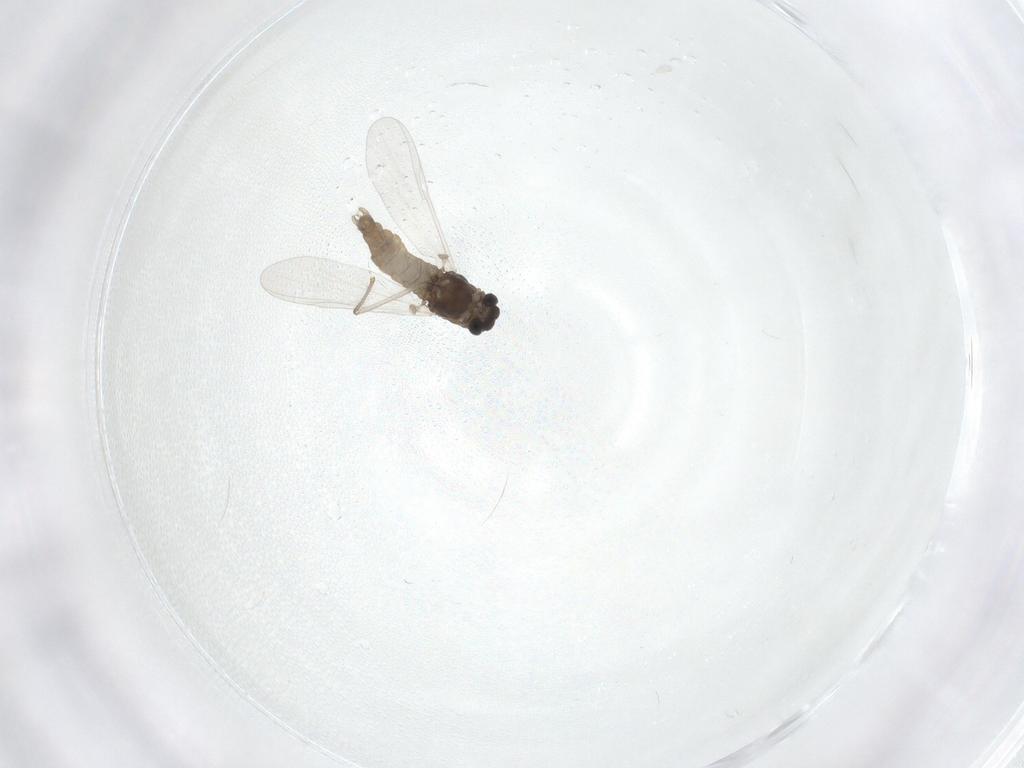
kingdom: Animalia
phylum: Arthropoda
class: Insecta
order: Diptera
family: Chironomidae
